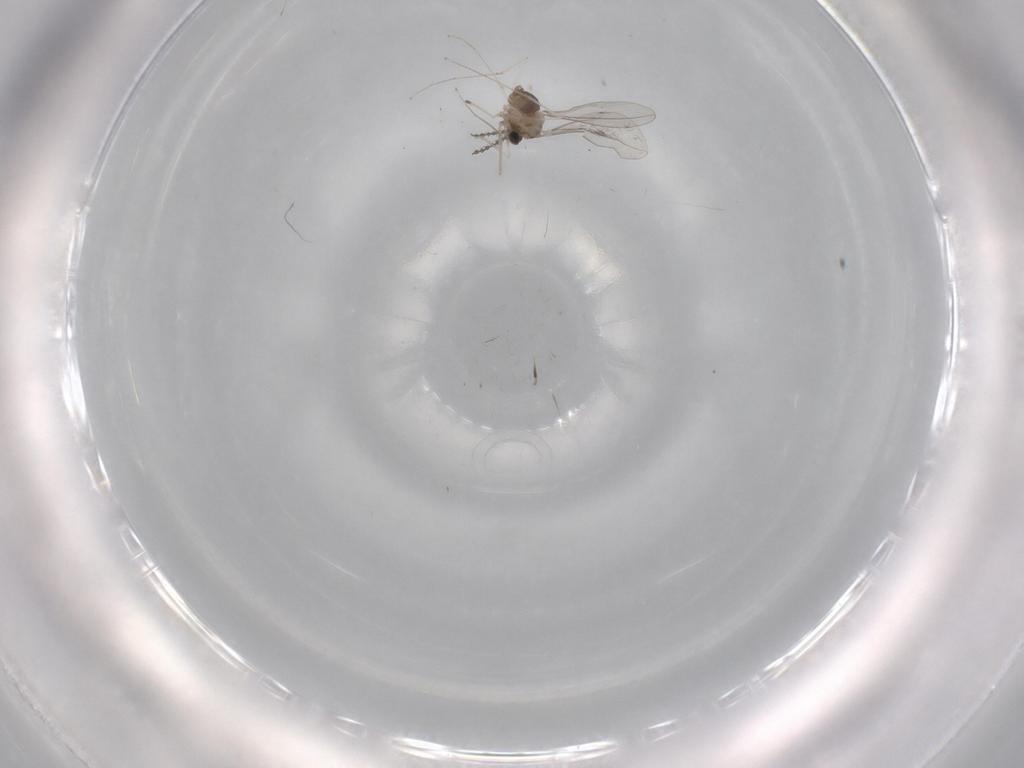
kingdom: Animalia
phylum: Arthropoda
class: Insecta
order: Diptera
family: Cecidomyiidae
